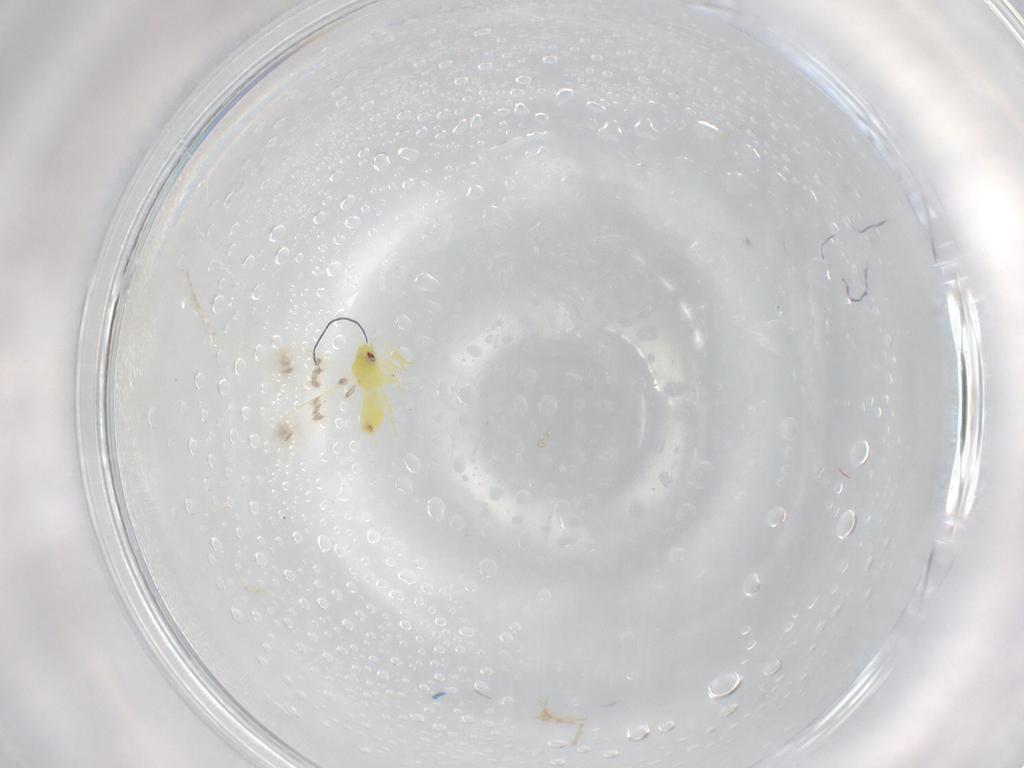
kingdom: Animalia
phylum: Arthropoda
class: Insecta
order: Hemiptera
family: Aleyrodidae
